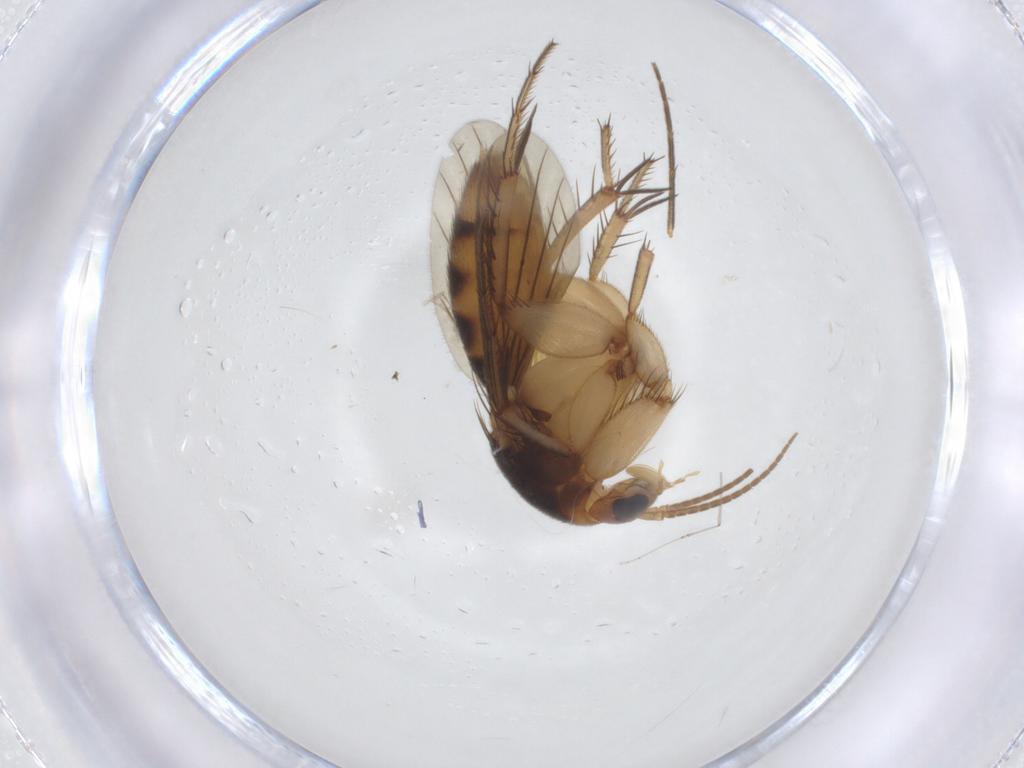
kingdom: Animalia
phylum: Arthropoda
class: Insecta
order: Diptera
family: Mycetophilidae
